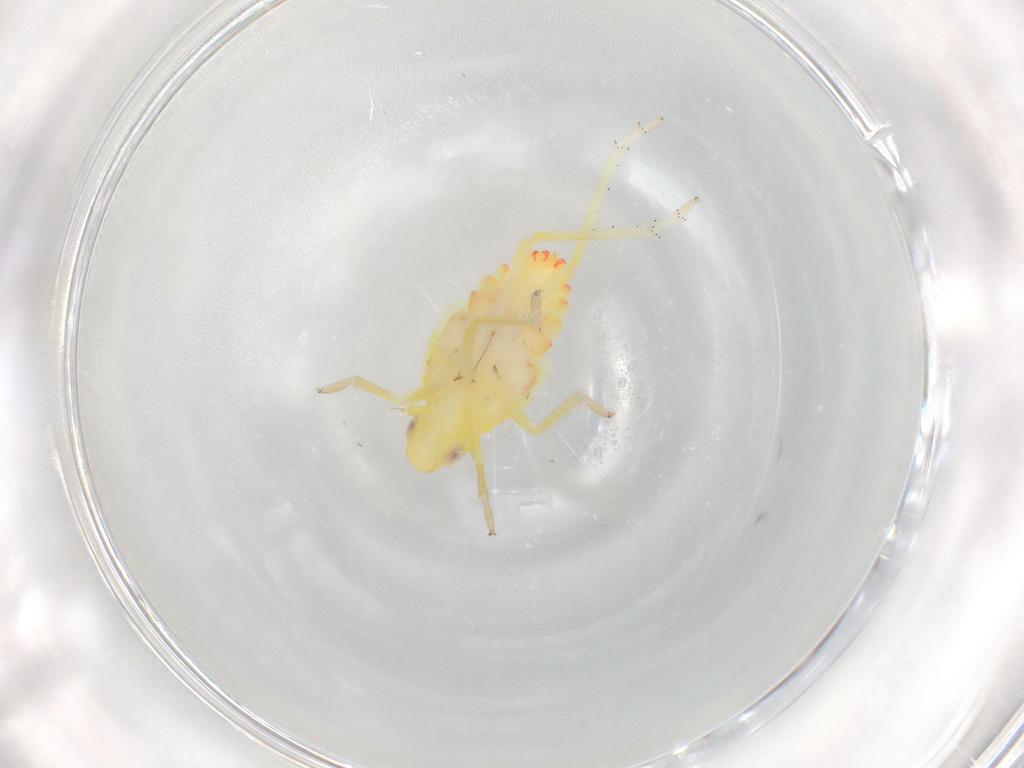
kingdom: Animalia
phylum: Arthropoda
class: Insecta
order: Hemiptera
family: Tropiduchidae
